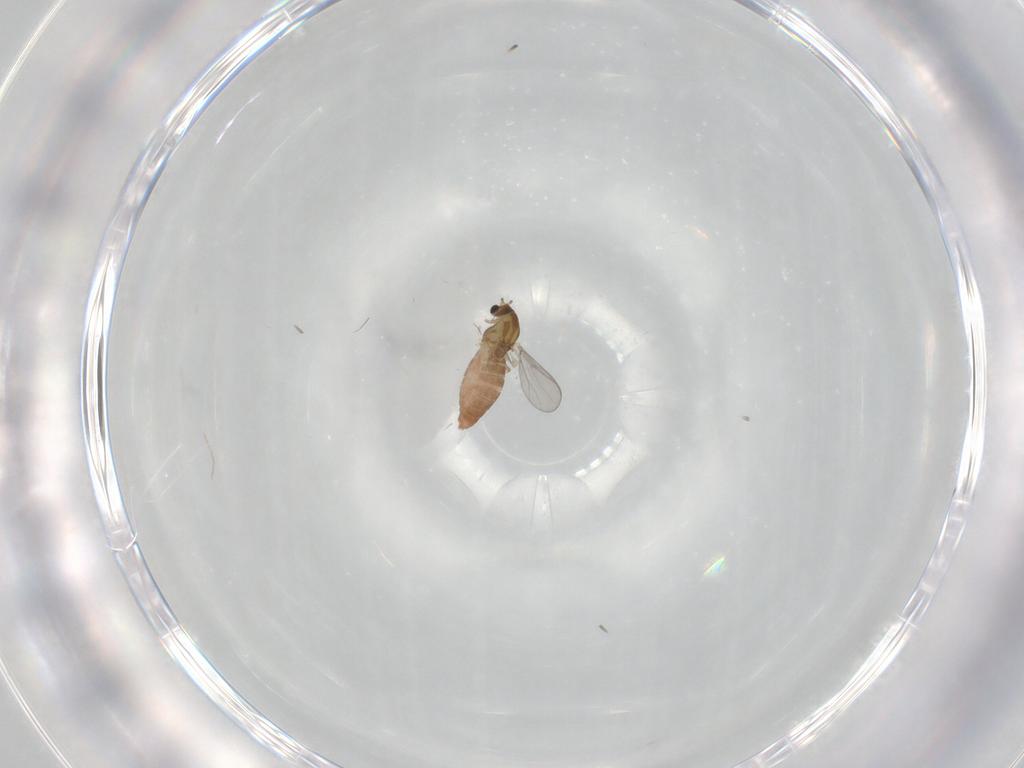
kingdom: Animalia
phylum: Arthropoda
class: Insecta
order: Diptera
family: Chironomidae
